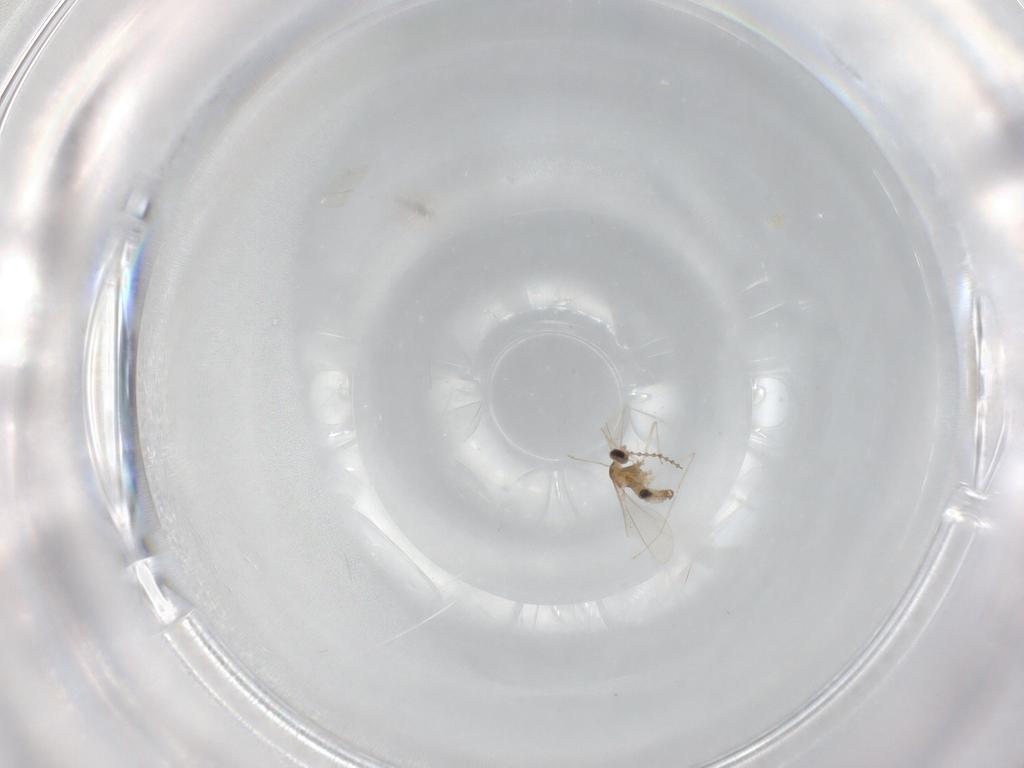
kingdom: Animalia
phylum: Arthropoda
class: Insecta
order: Diptera
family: Cecidomyiidae
